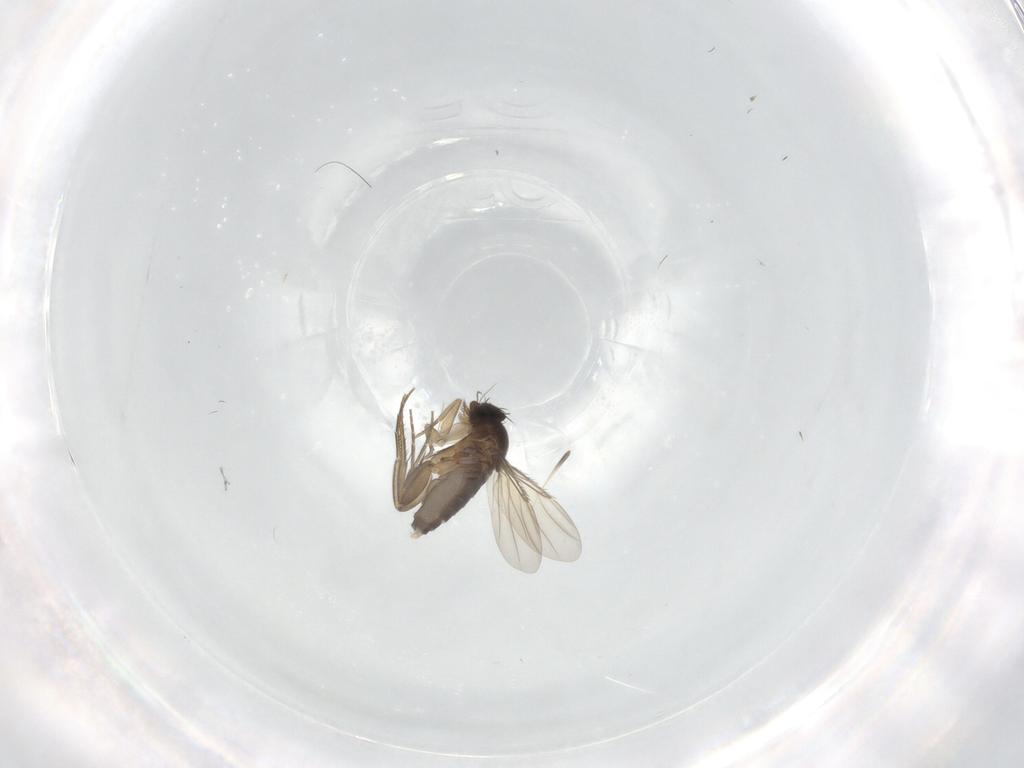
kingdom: Animalia
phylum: Arthropoda
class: Insecta
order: Diptera
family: Phoridae
